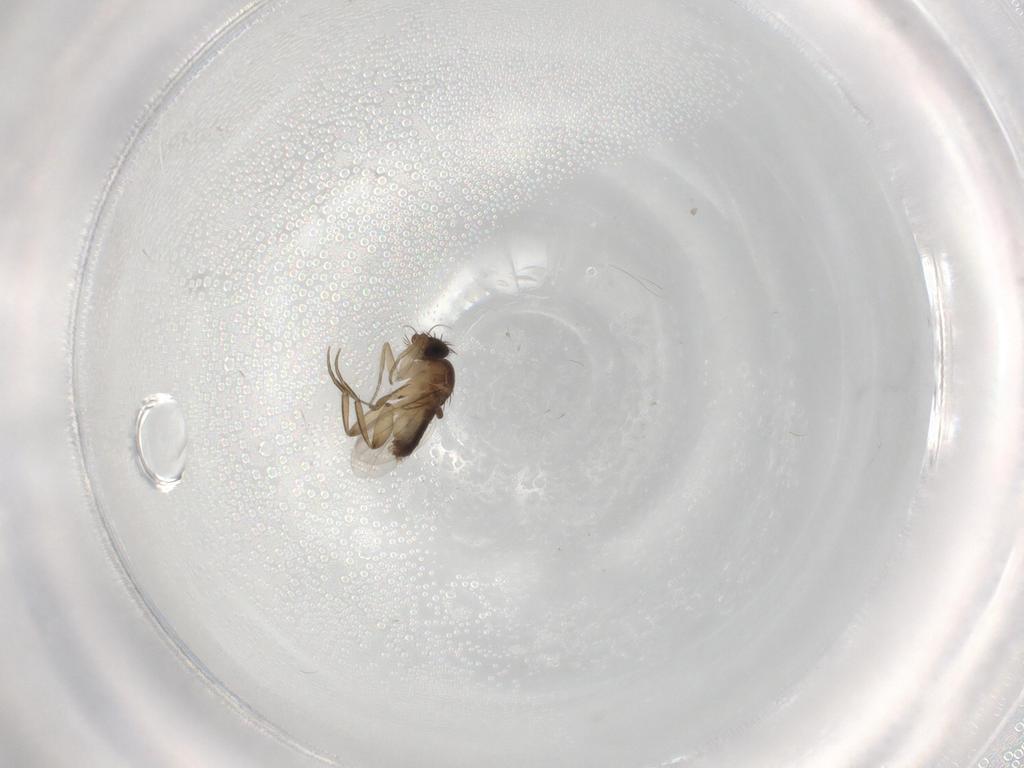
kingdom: Animalia
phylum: Arthropoda
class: Insecta
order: Diptera
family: Phoridae
